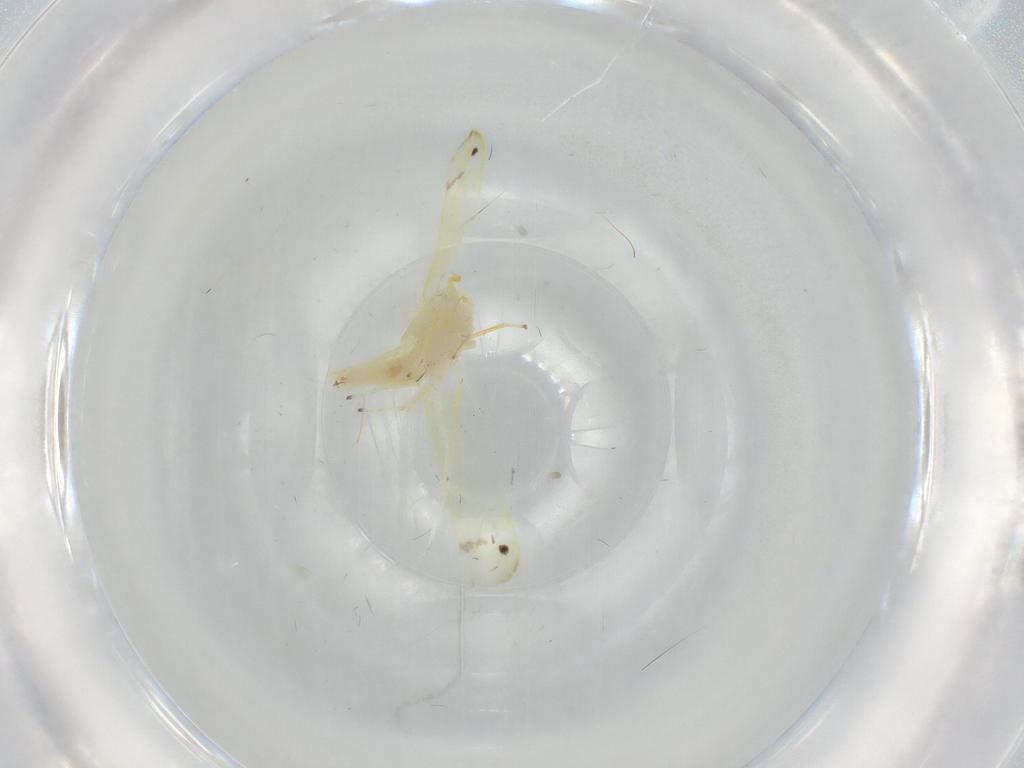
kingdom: Animalia
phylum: Arthropoda
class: Insecta
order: Hemiptera
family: Cicadellidae
